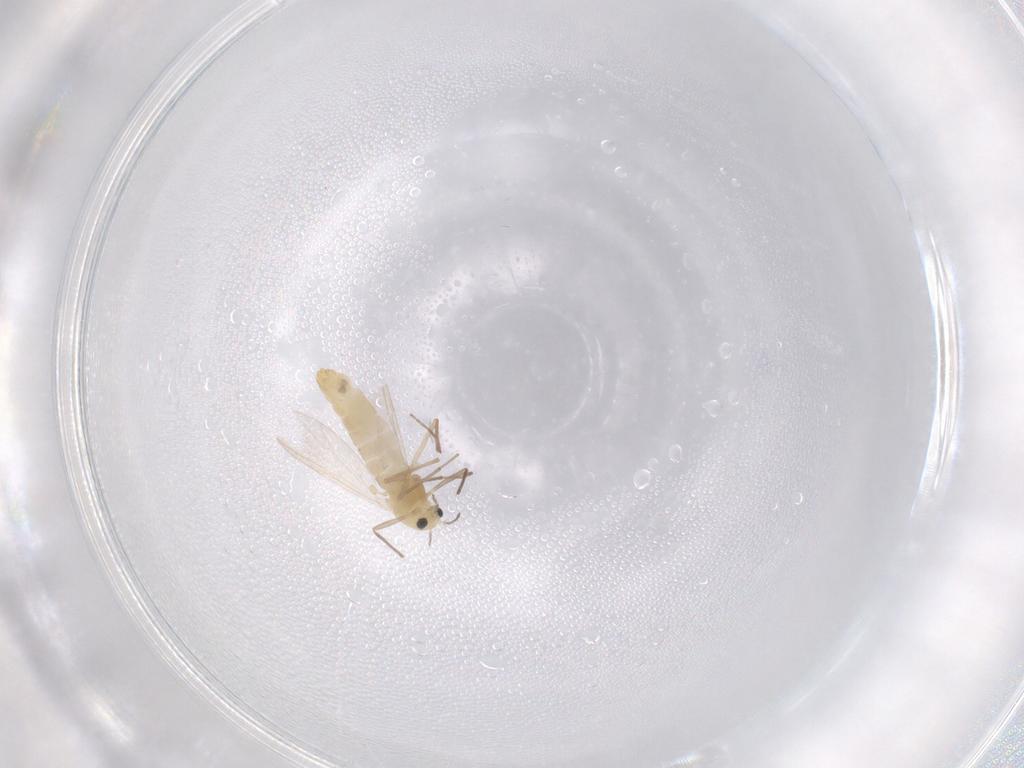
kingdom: Animalia
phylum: Arthropoda
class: Insecta
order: Diptera
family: Chironomidae
